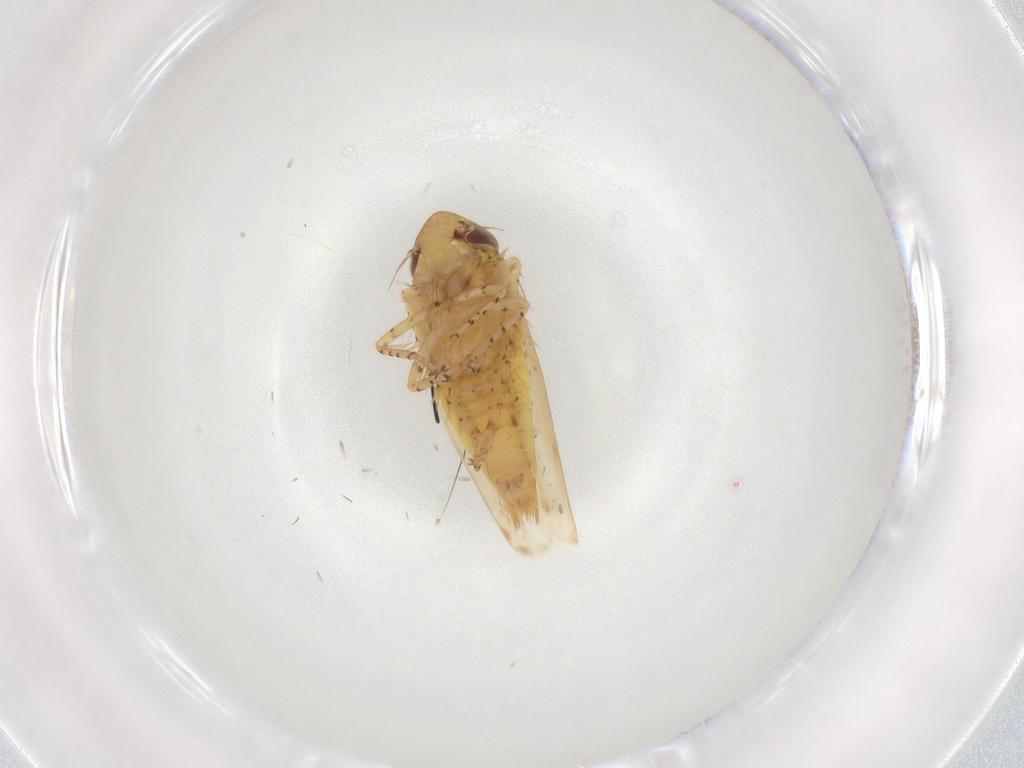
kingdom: Animalia
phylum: Arthropoda
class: Insecta
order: Hemiptera
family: Cicadellidae
